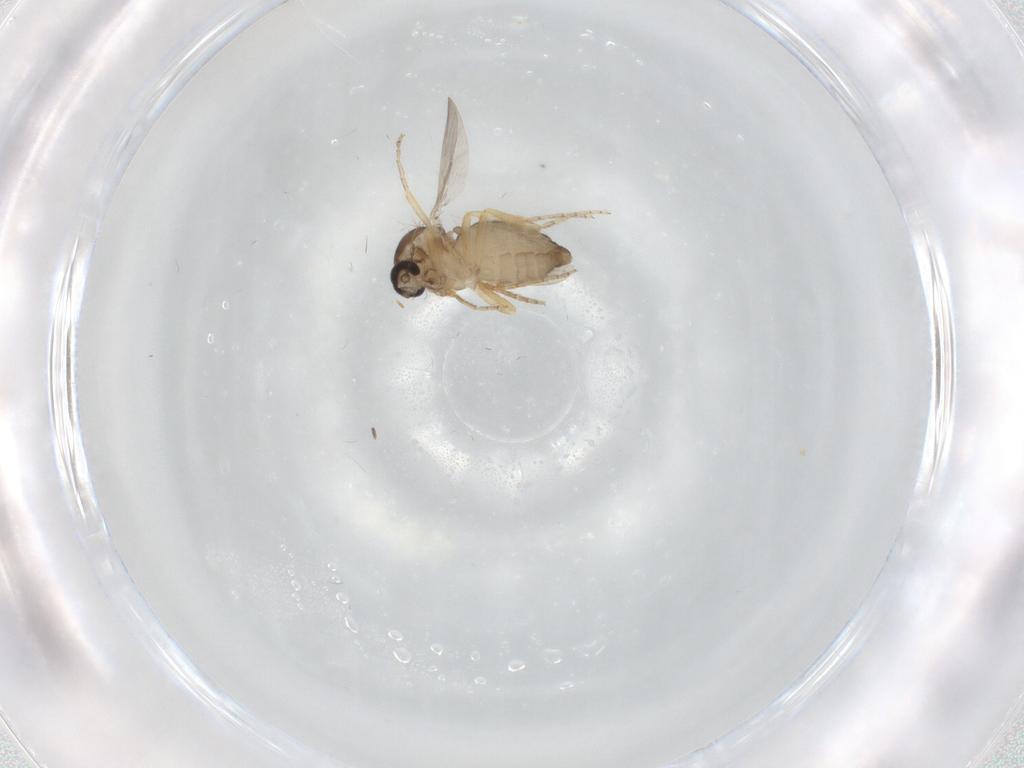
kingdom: Animalia
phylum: Arthropoda
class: Insecta
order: Diptera
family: Ceratopogonidae
